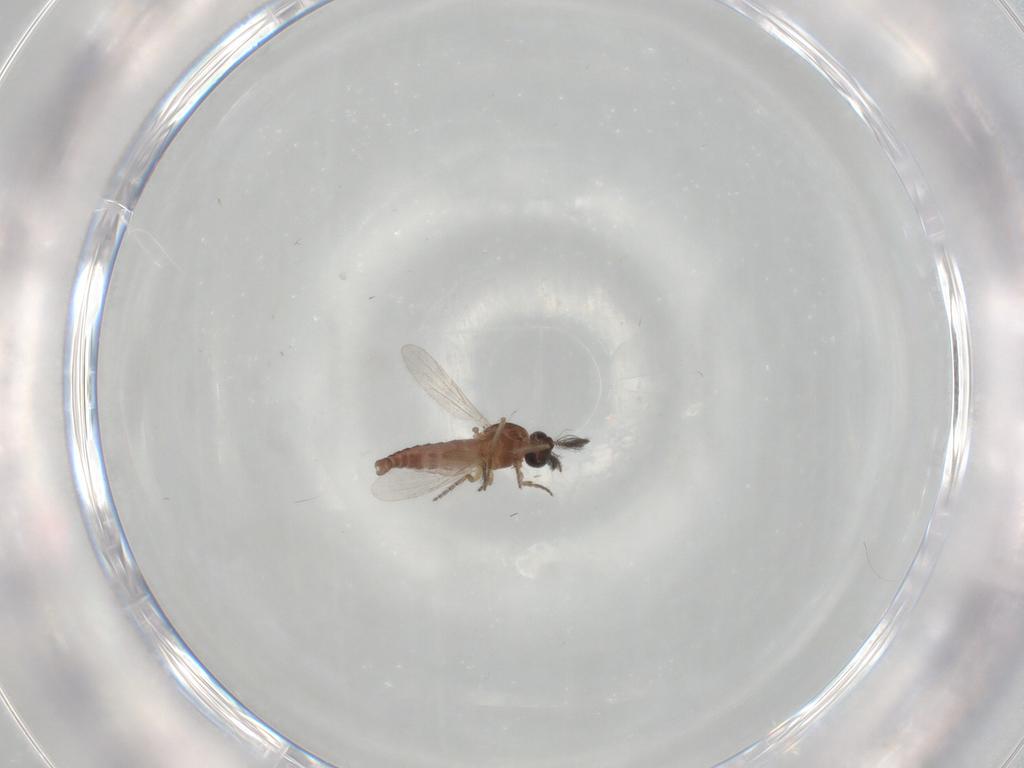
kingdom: Animalia
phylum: Arthropoda
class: Insecta
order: Diptera
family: Ceratopogonidae
